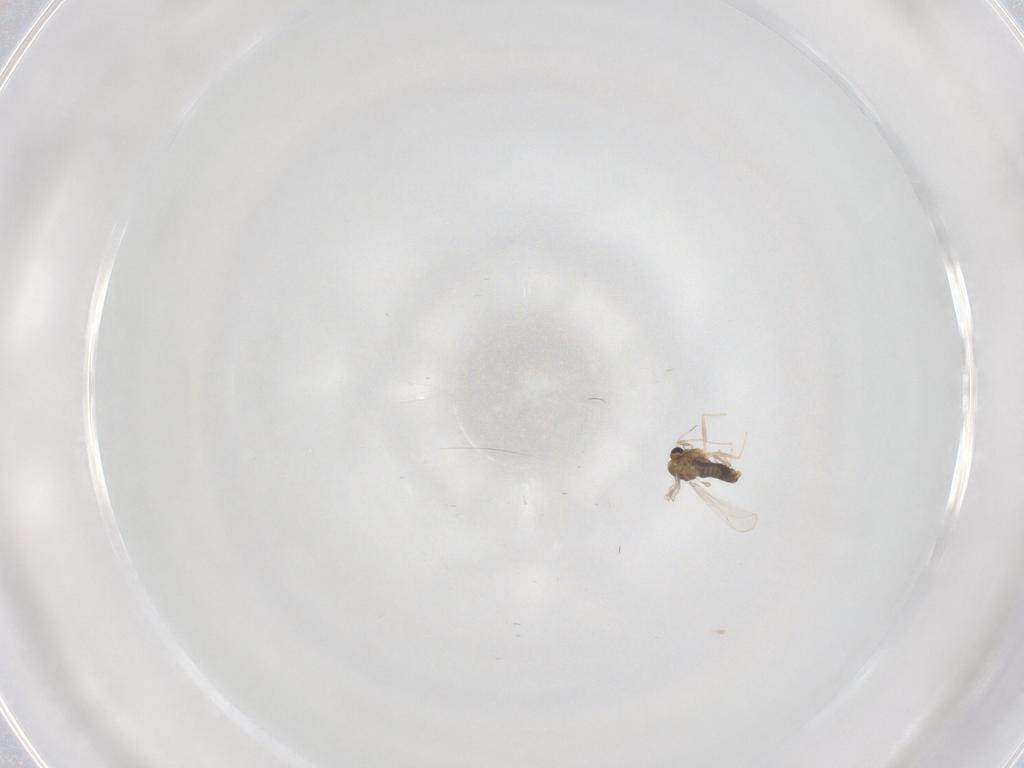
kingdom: Animalia
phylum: Arthropoda
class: Insecta
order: Diptera
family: Chironomidae
